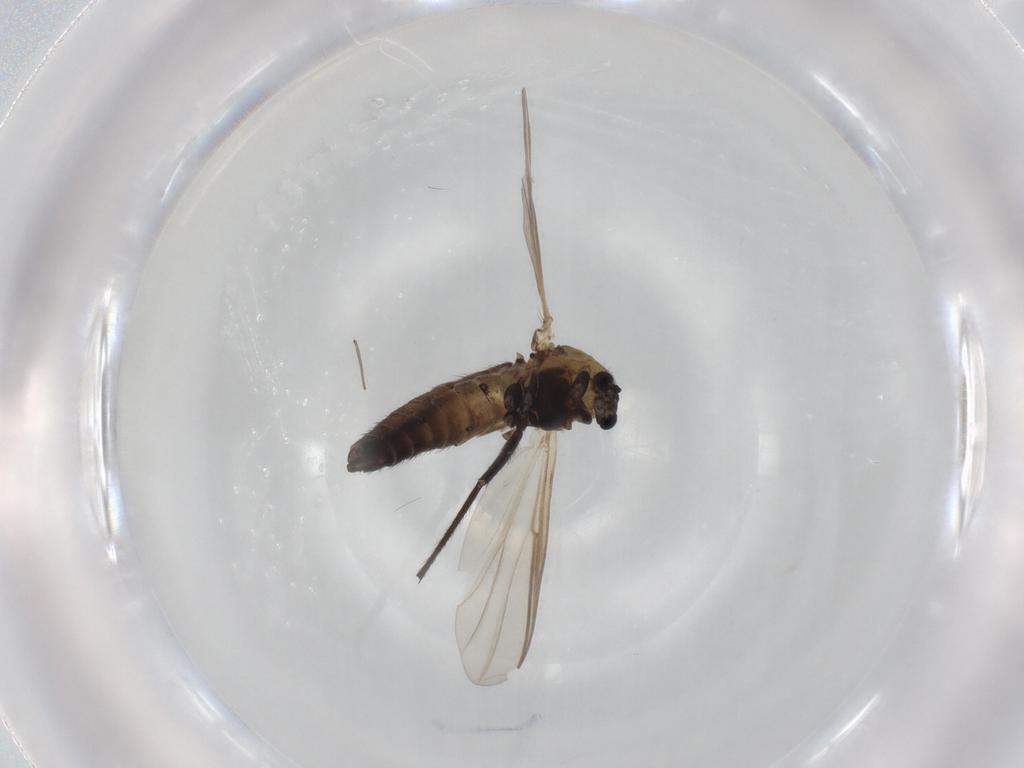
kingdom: Animalia
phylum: Arthropoda
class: Insecta
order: Diptera
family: Chironomidae
